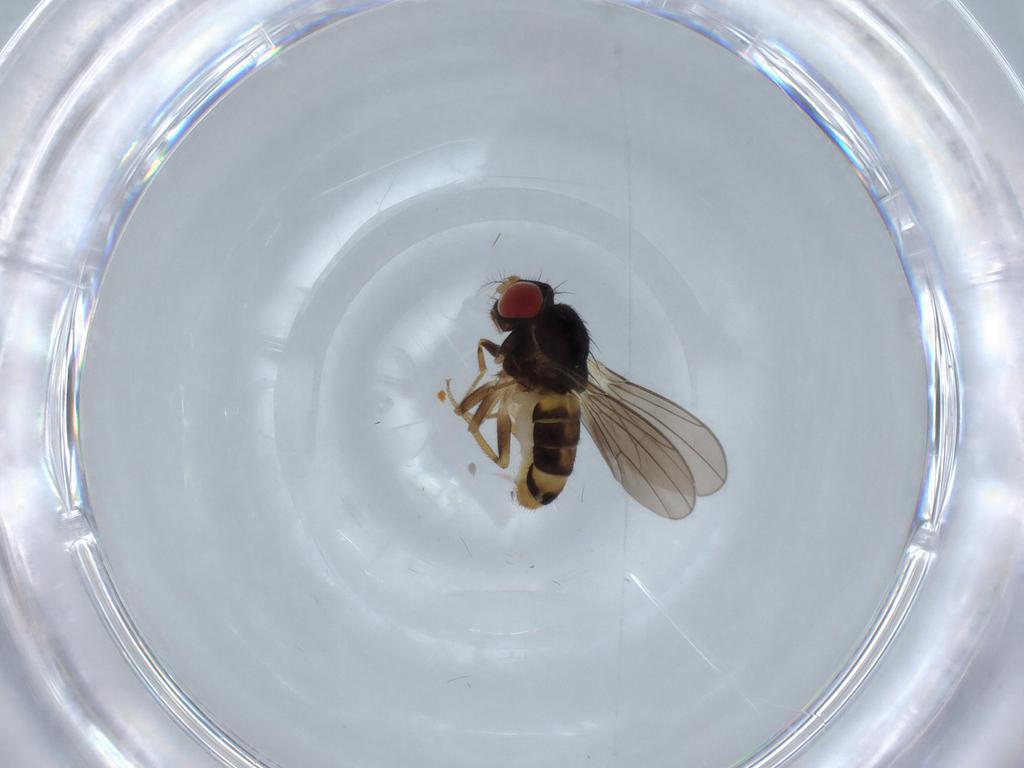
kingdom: Animalia
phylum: Arthropoda
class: Insecta
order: Diptera
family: Drosophilidae
